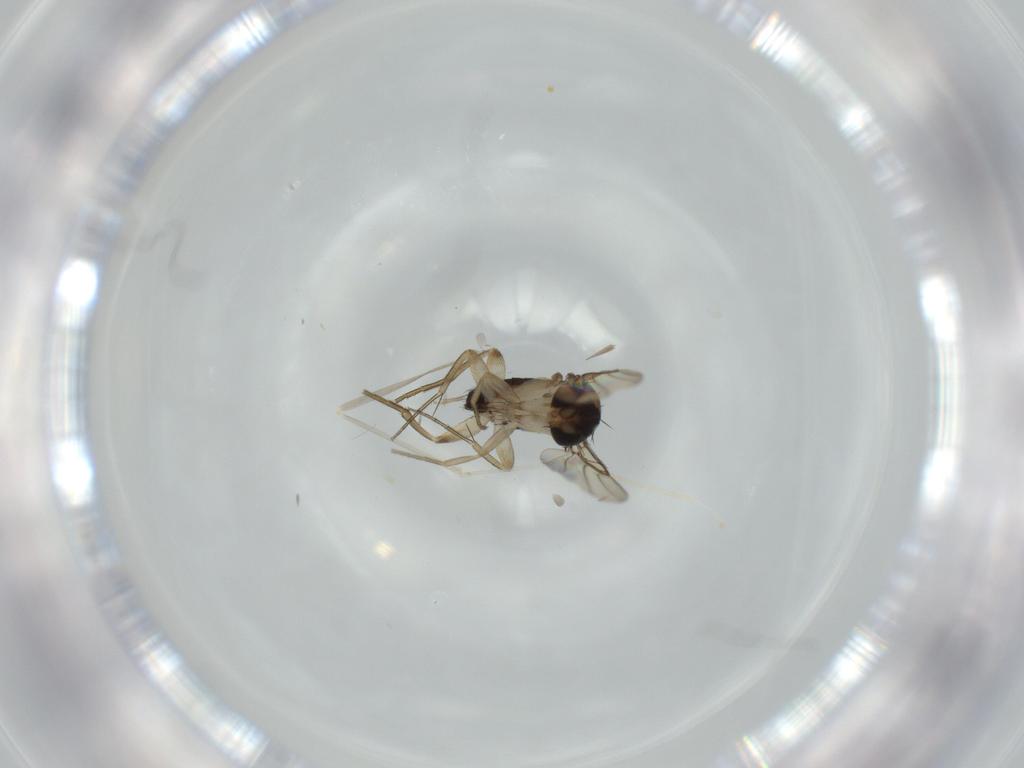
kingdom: Animalia
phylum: Arthropoda
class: Insecta
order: Diptera
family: Cecidomyiidae
